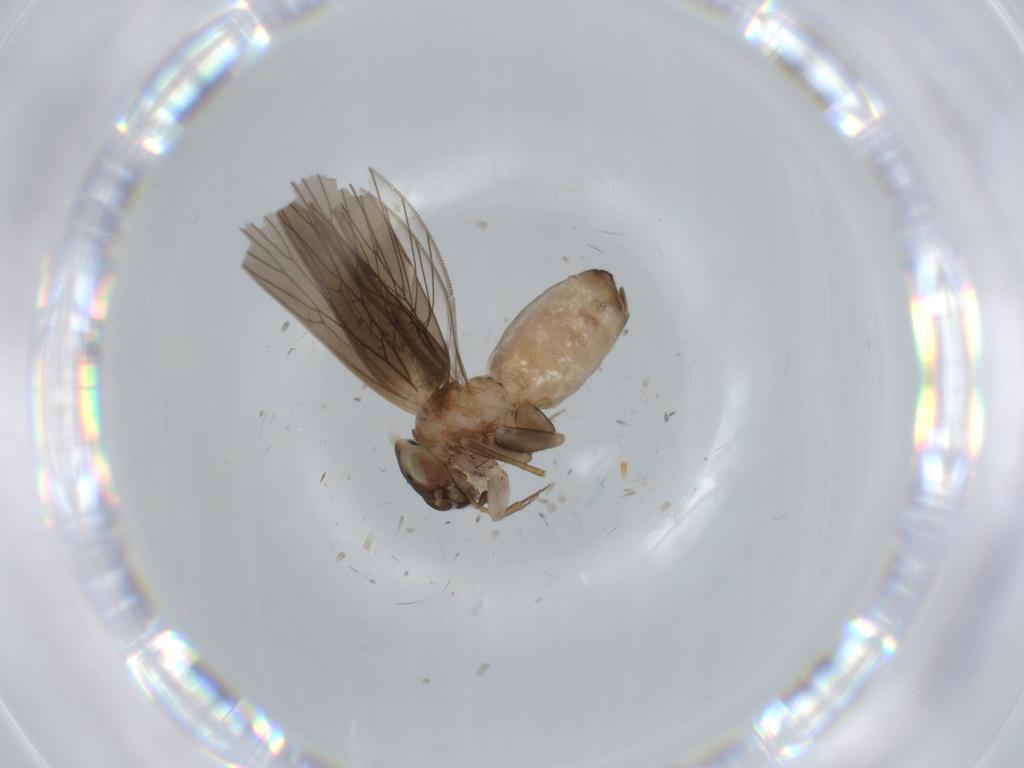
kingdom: Animalia
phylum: Arthropoda
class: Insecta
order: Psocodea
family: Lepidopsocidae
